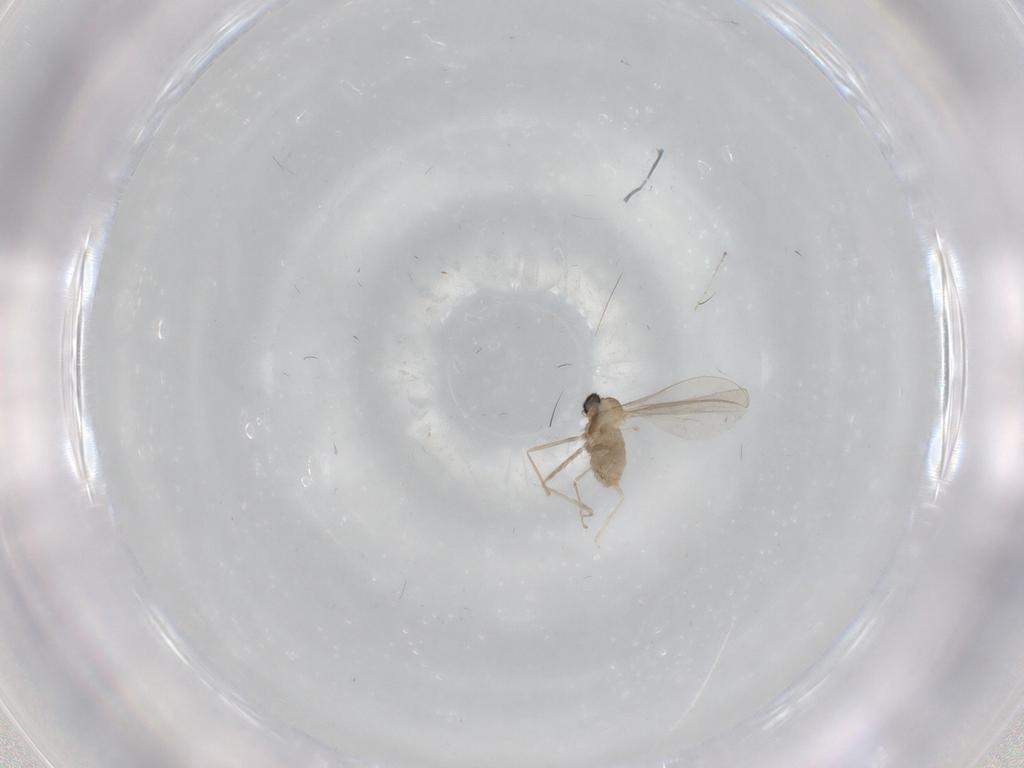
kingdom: Animalia
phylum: Arthropoda
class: Insecta
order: Diptera
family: Cecidomyiidae
